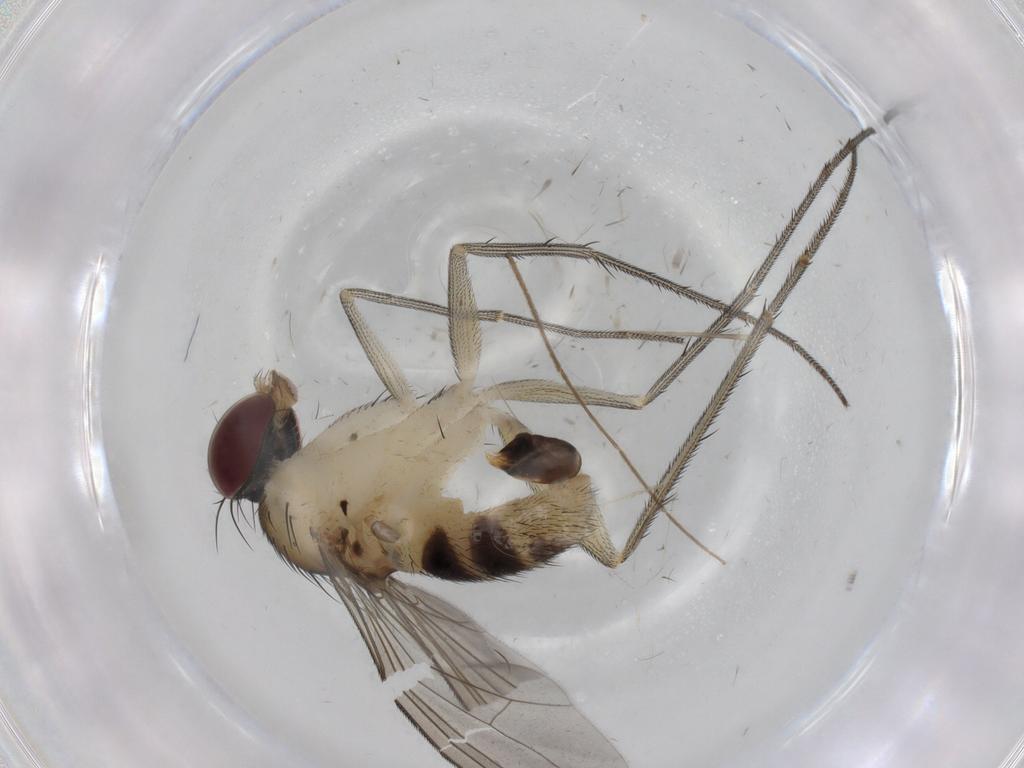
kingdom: Animalia
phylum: Arthropoda
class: Insecta
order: Diptera
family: Dolichopodidae
